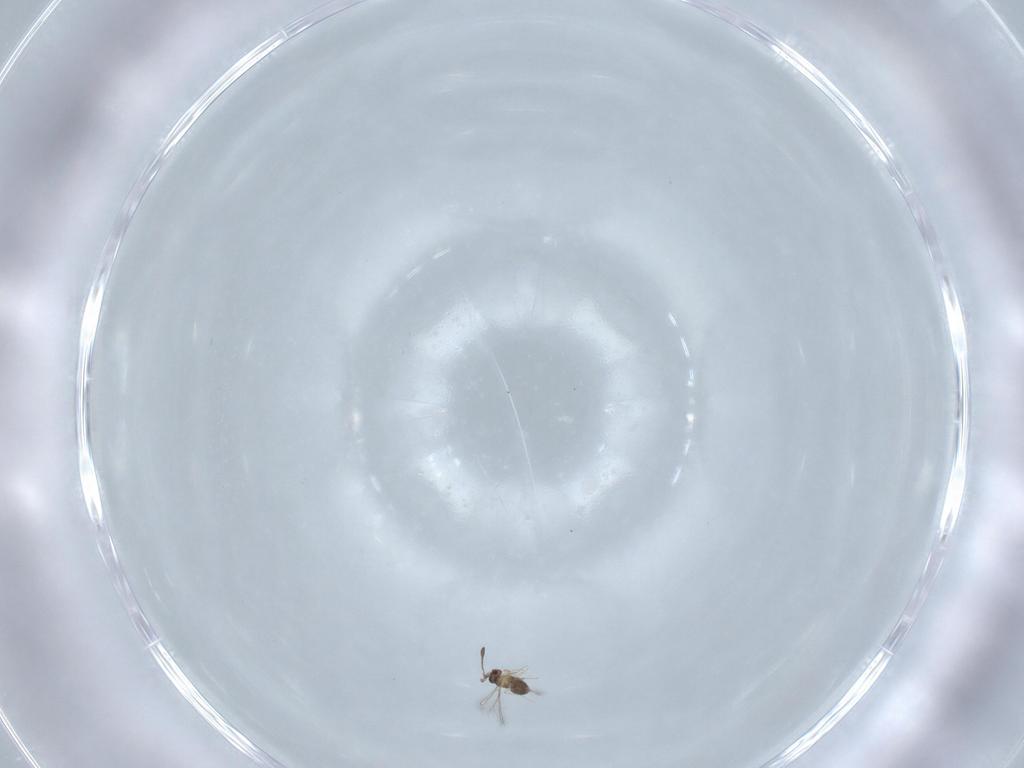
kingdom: Animalia
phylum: Arthropoda
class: Insecta
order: Hymenoptera
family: Mymaridae
